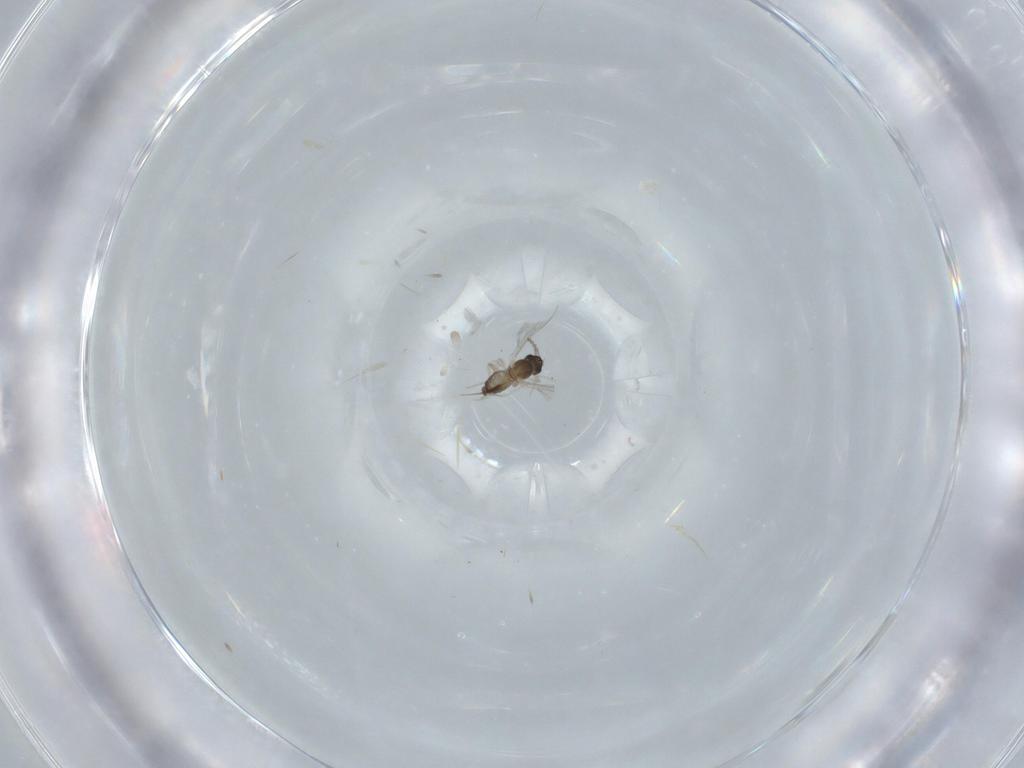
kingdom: Animalia
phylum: Arthropoda
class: Insecta
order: Diptera
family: Cecidomyiidae
